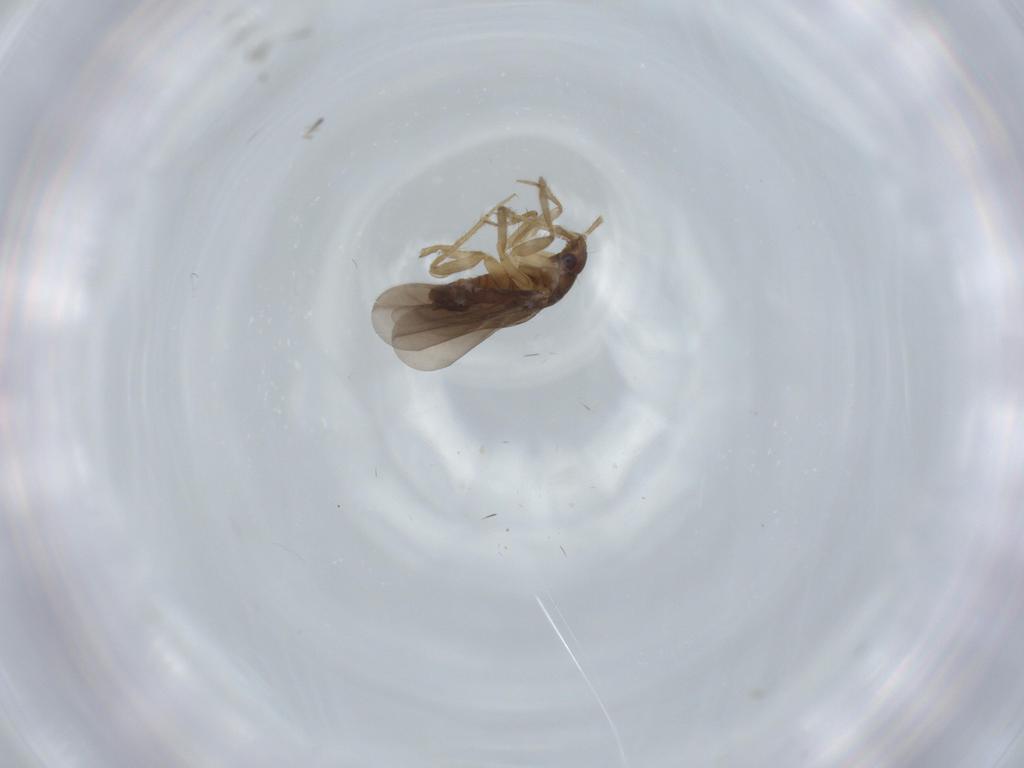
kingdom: Animalia
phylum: Arthropoda
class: Insecta
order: Hemiptera
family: Ceratocombidae
